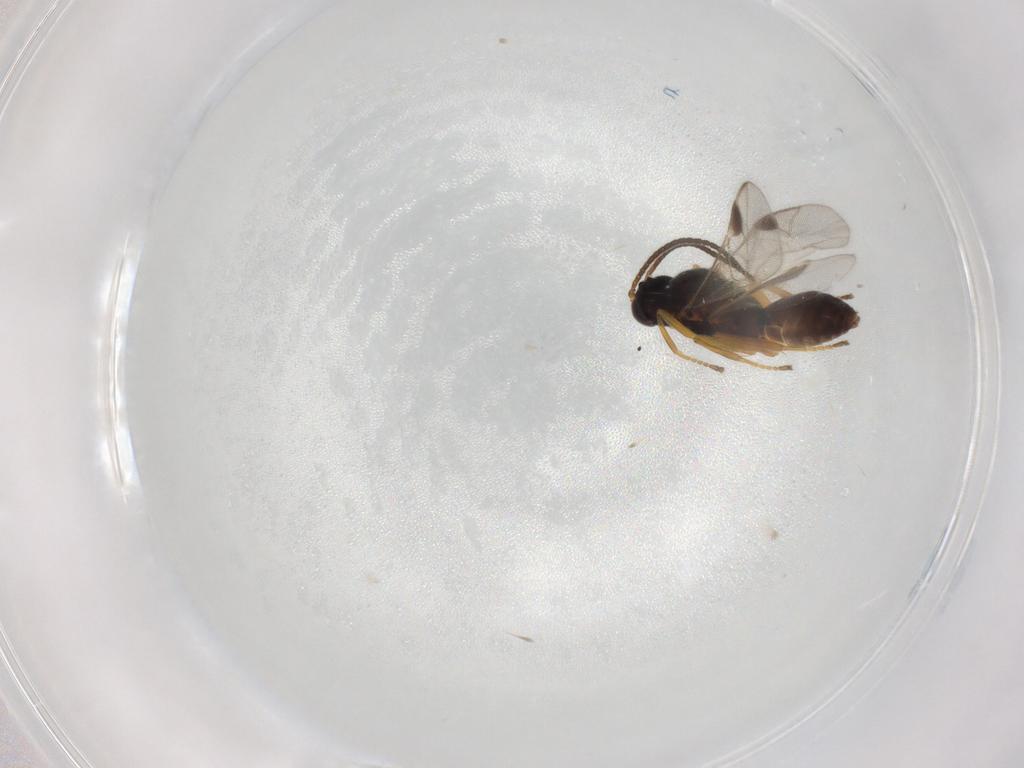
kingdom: Animalia
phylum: Arthropoda
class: Insecta
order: Hymenoptera
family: Braconidae
